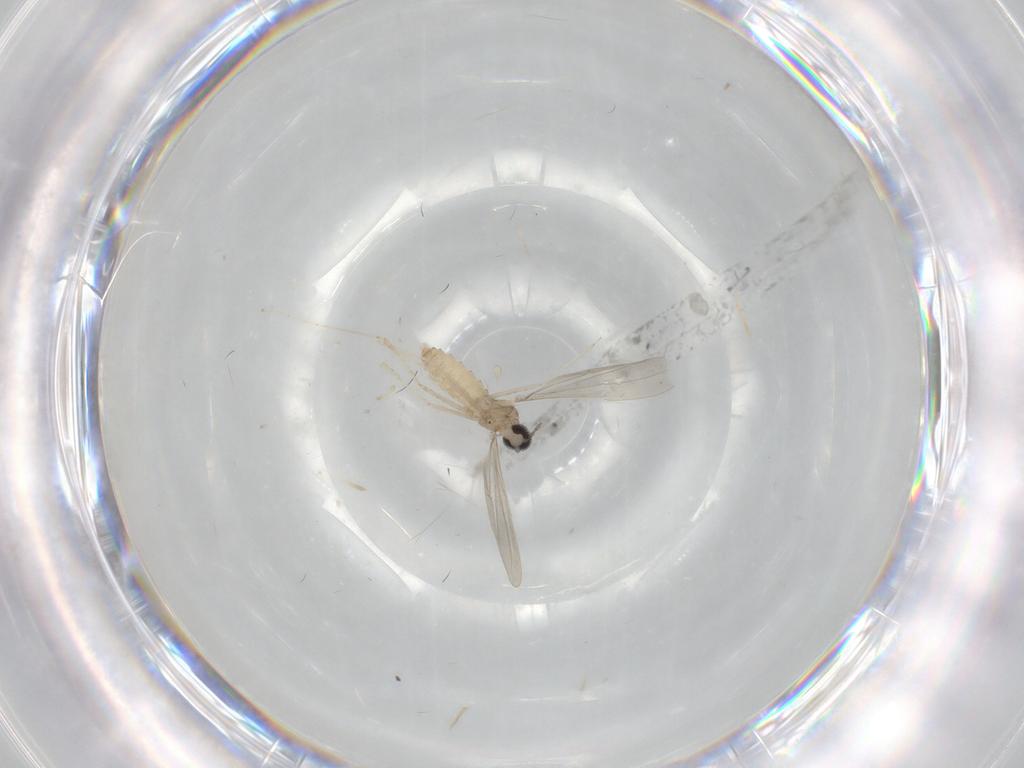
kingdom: Animalia
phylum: Arthropoda
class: Insecta
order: Diptera
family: Cecidomyiidae
